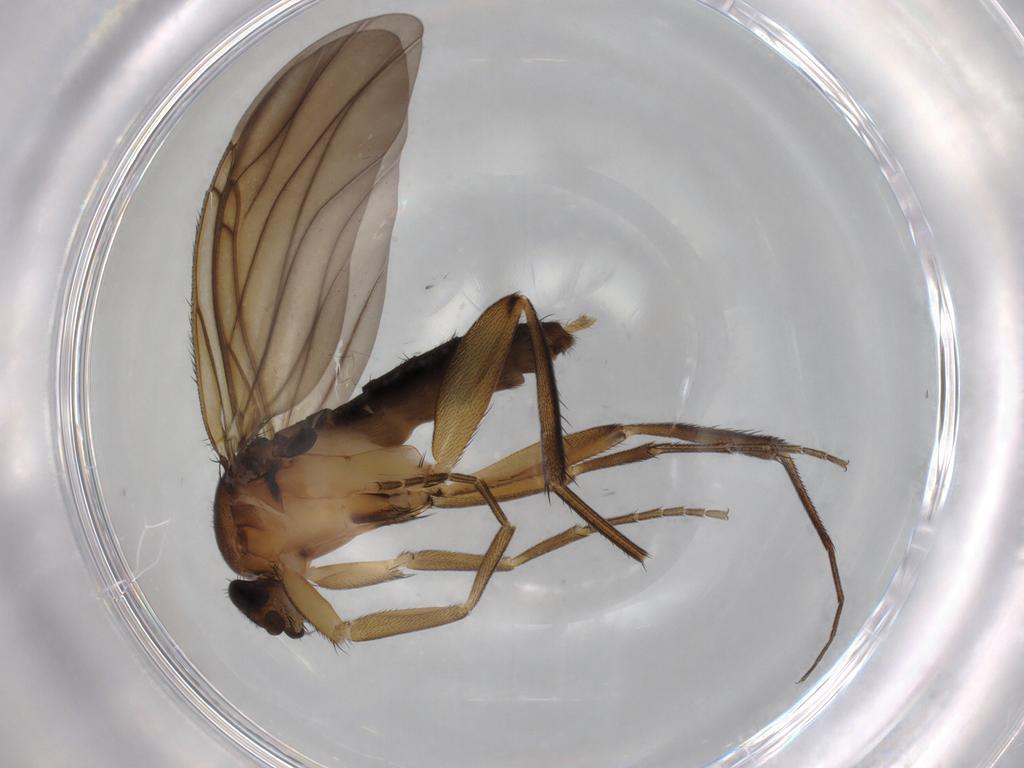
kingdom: Animalia
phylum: Arthropoda
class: Insecta
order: Diptera
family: Phoridae
